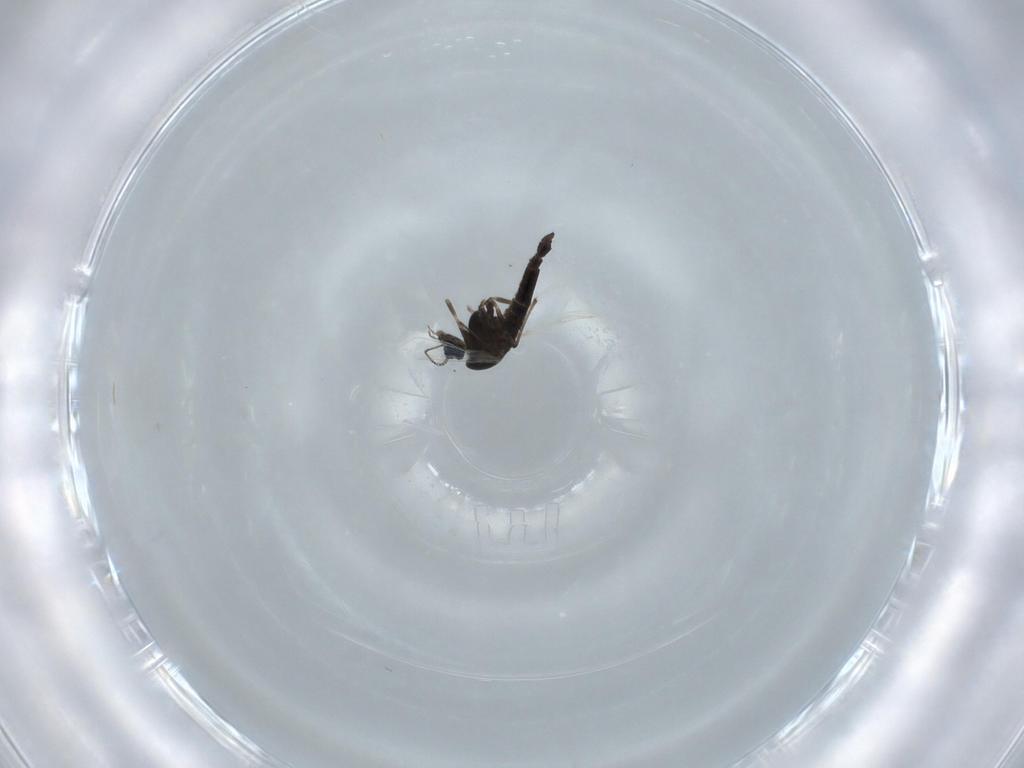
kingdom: Animalia
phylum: Arthropoda
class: Insecta
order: Diptera
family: Chironomidae
